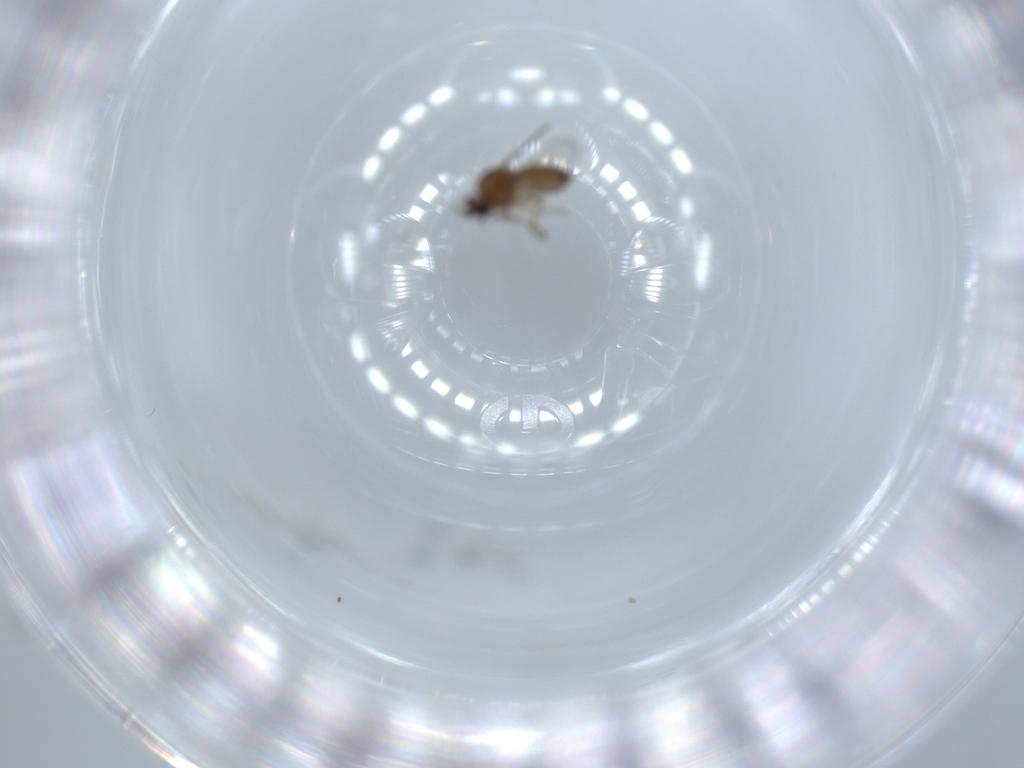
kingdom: Animalia
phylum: Arthropoda
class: Insecta
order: Diptera
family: Ceratopogonidae
